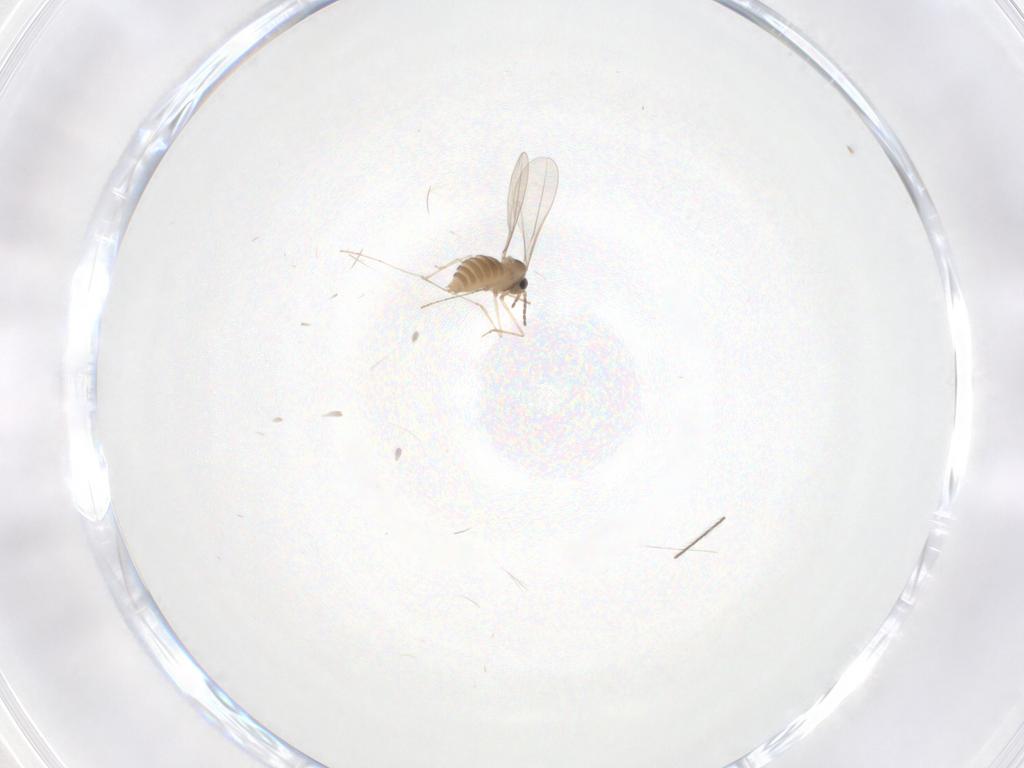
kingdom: Animalia
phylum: Arthropoda
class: Insecta
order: Diptera
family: Cecidomyiidae
